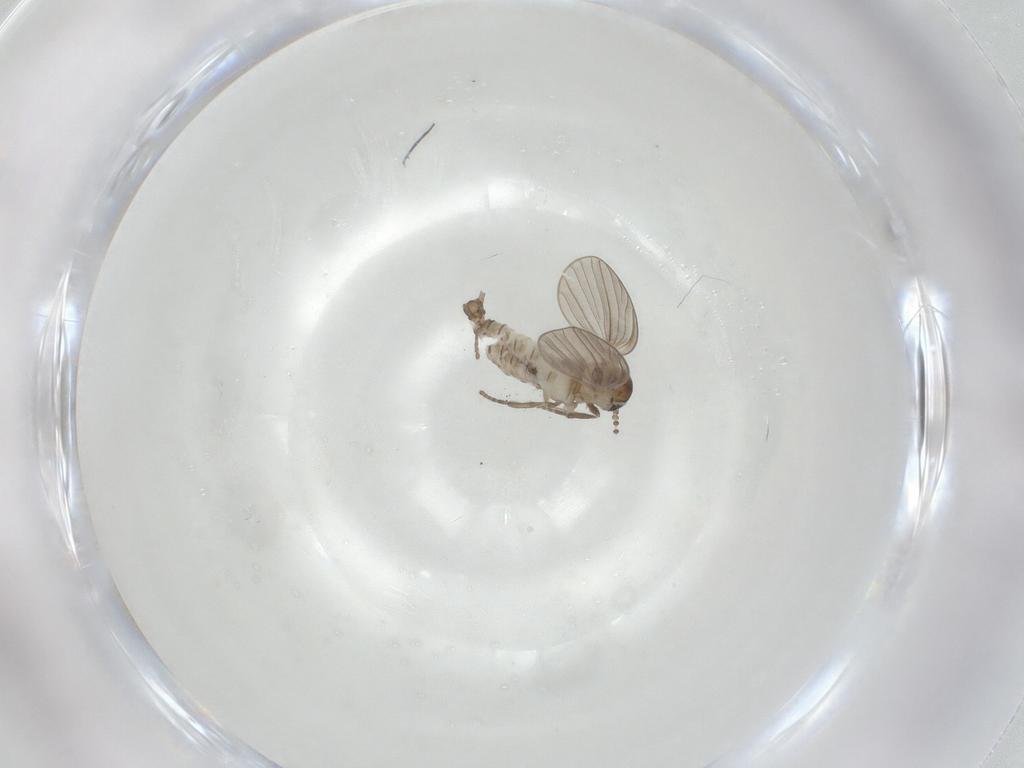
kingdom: Animalia
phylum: Arthropoda
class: Insecta
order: Diptera
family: Psychodidae
